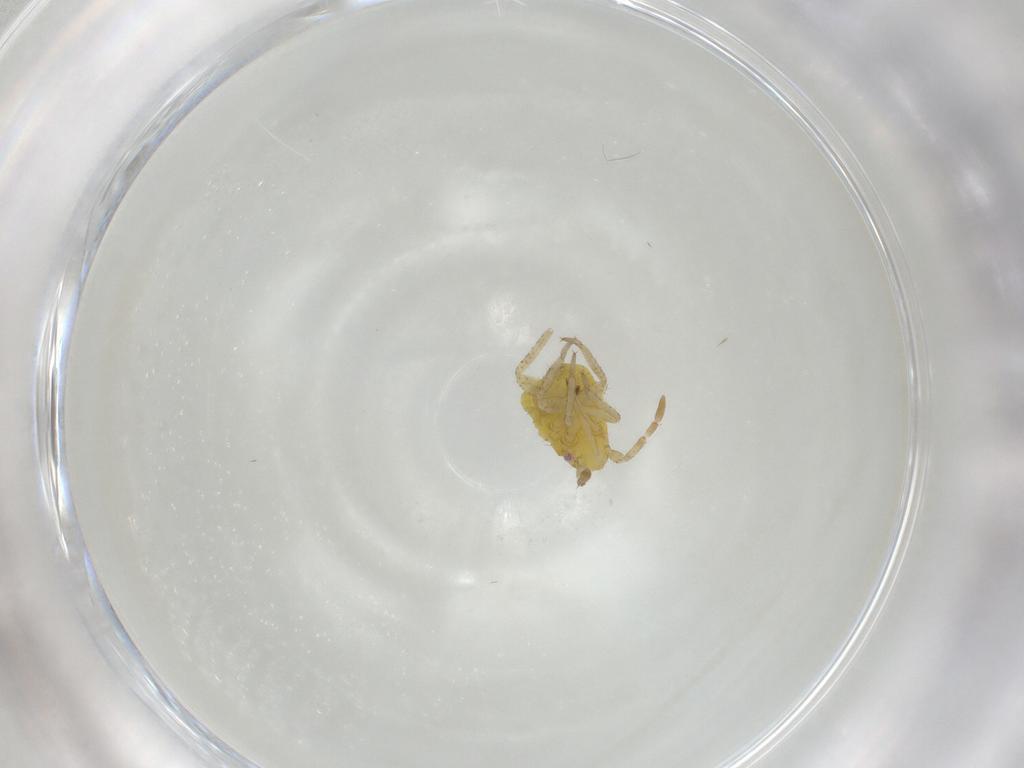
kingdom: Animalia
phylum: Arthropoda
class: Insecta
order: Hemiptera
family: Miridae
